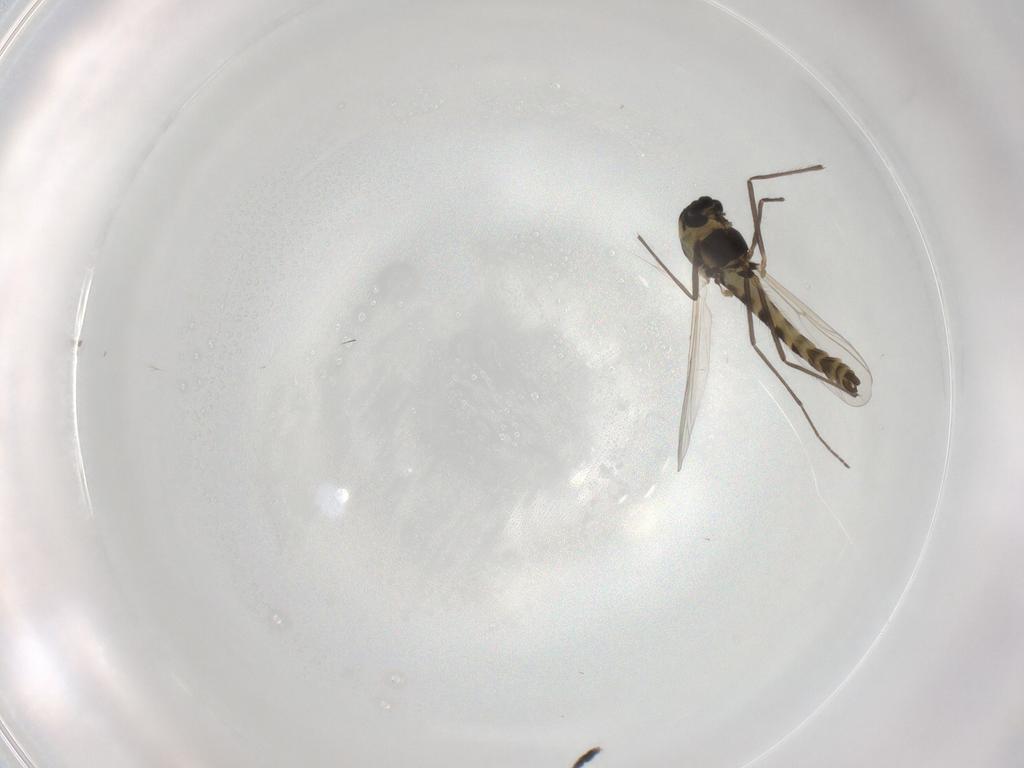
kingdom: Animalia
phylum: Arthropoda
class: Insecta
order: Diptera
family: Chironomidae
